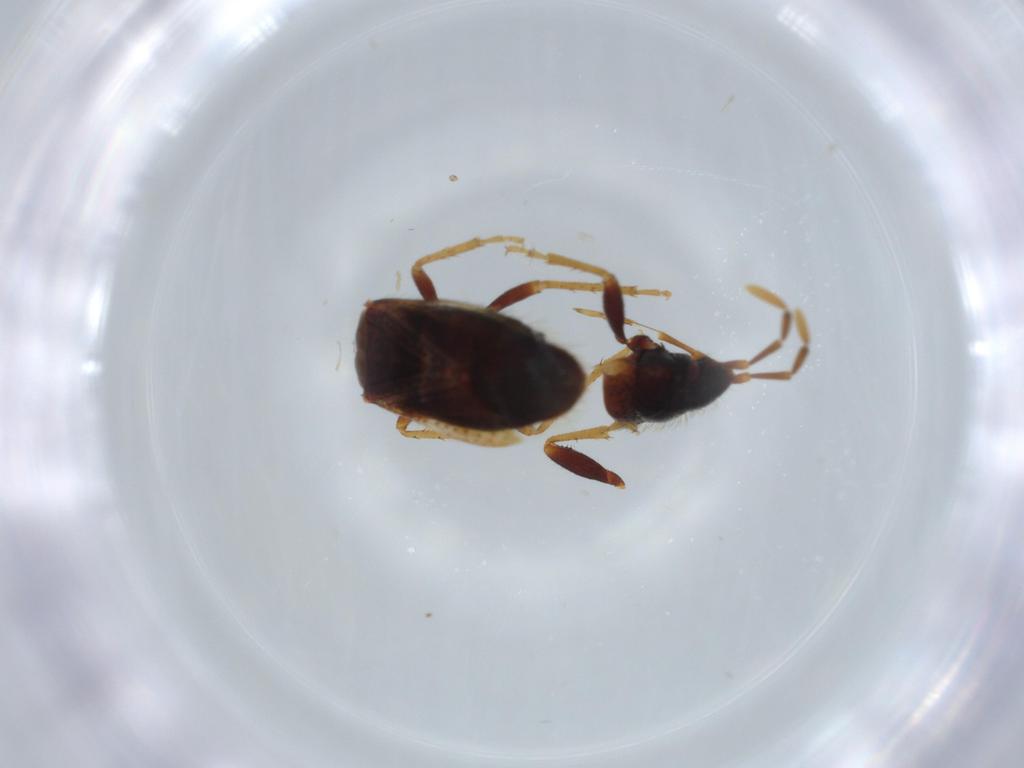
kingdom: Animalia
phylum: Arthropoda
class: Insecta
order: Hemiptera
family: Rhyparochromidae
